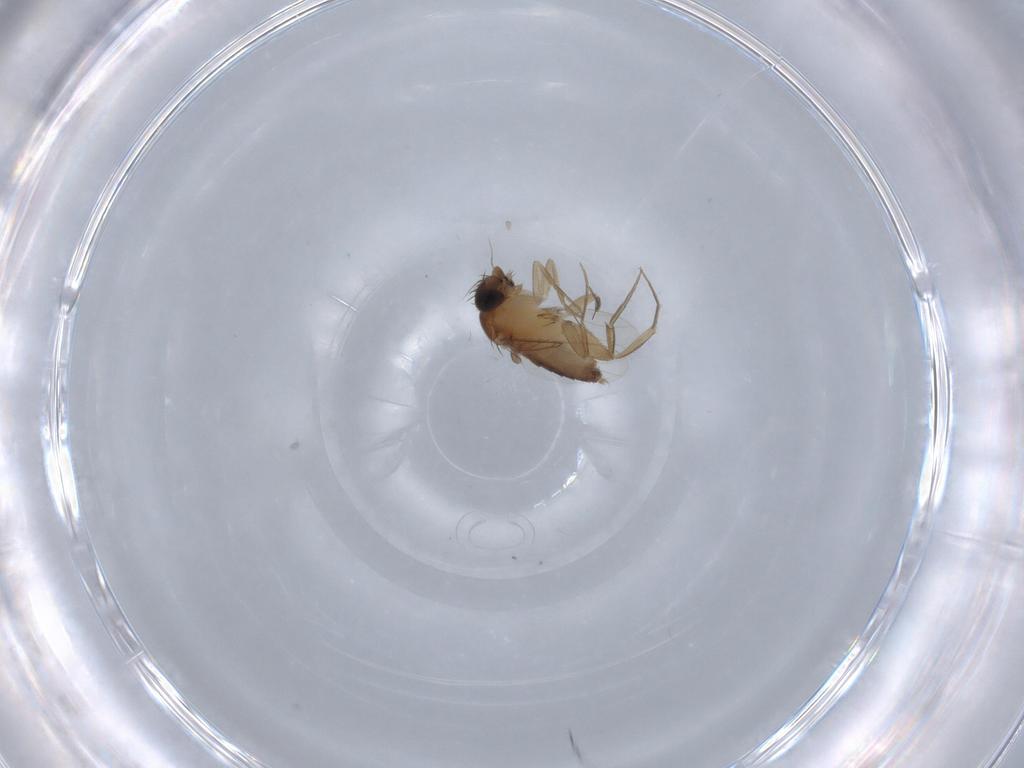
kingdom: Animalia
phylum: Arthropoda
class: Insecta
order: Diptera
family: Phoridae
